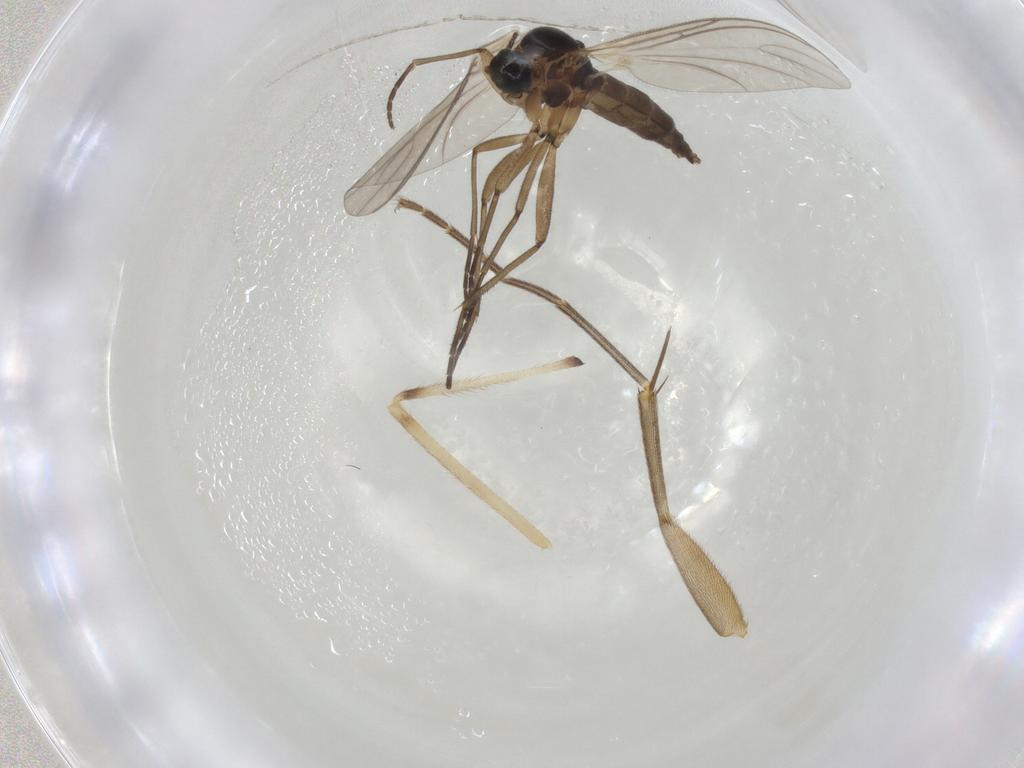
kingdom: Animalia
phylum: Arthropoda
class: Insecta
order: Diptera
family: Mycetophilidae
